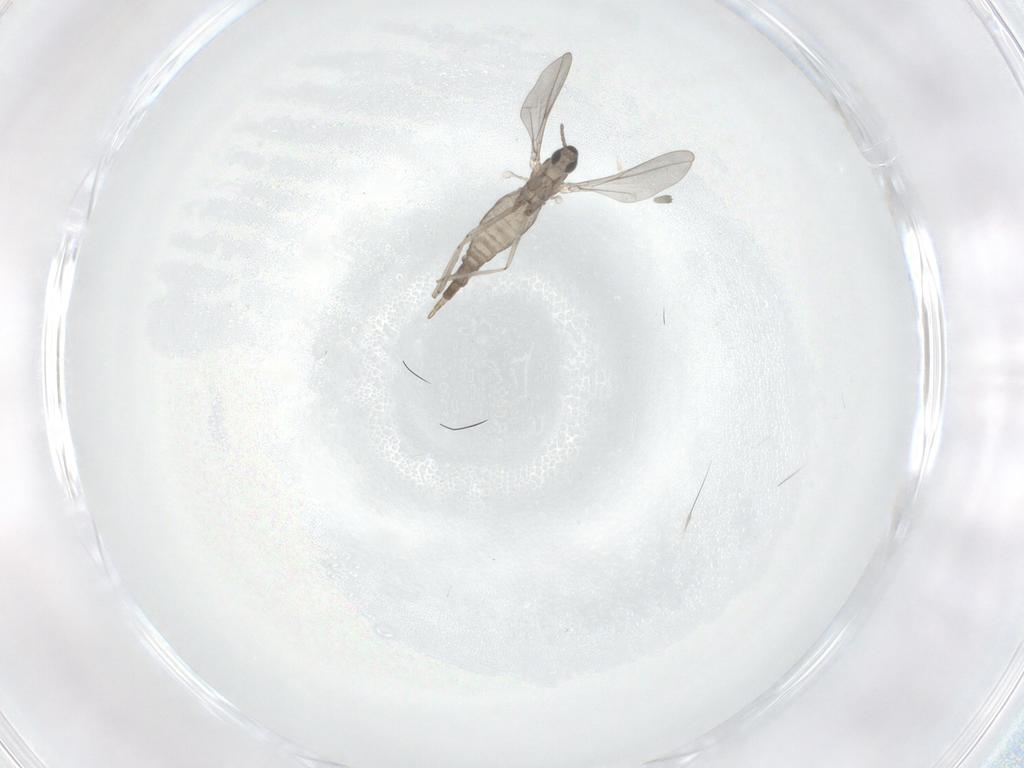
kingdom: Animalia
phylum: Arthropoda
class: Insecta
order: Diptera
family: Cecidomyiidae
